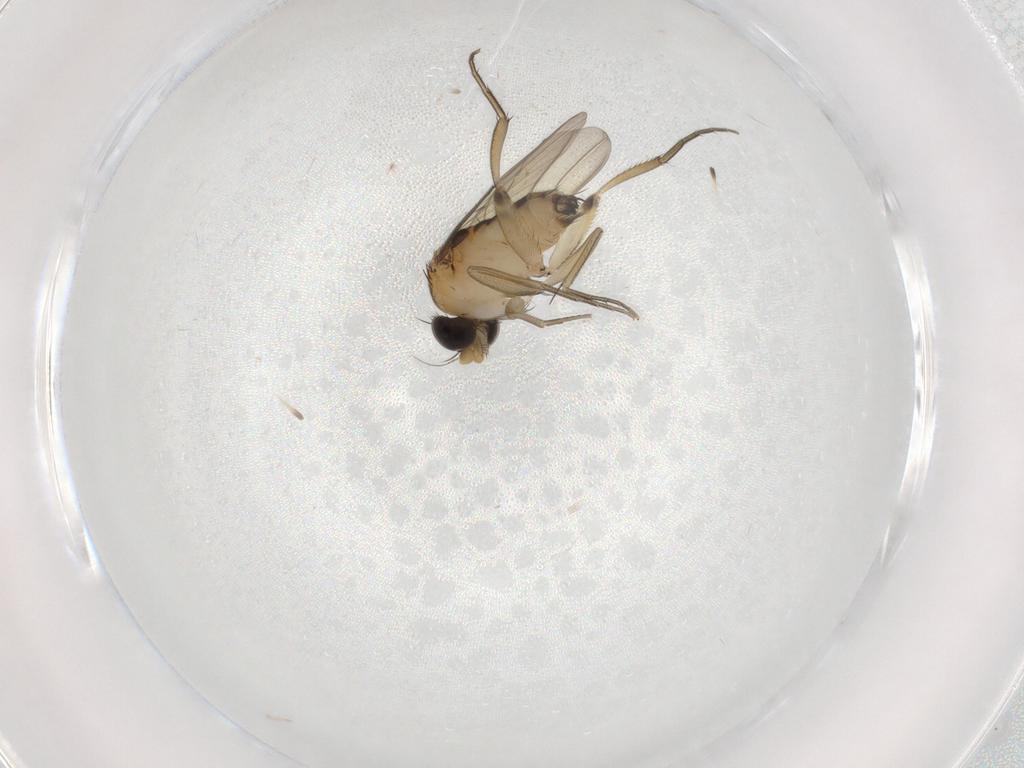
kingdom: Animalia
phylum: Arthropoda
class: Insecta
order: Diptera
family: Phoridae
